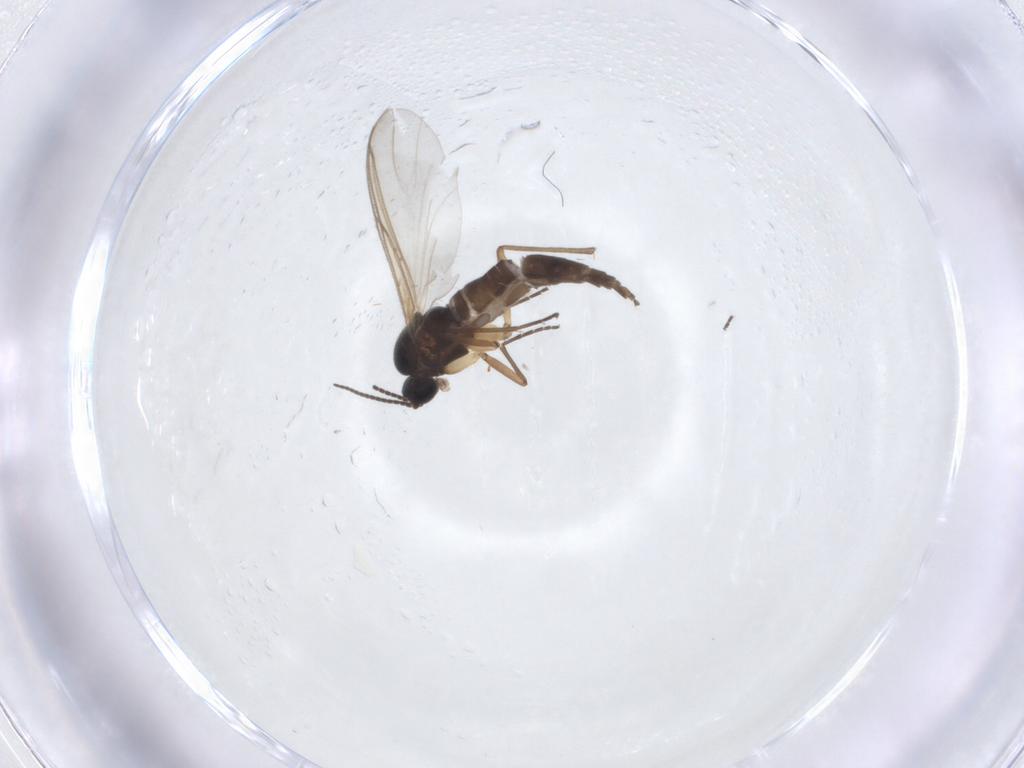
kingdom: Animalia
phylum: Arthropoda
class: Insecta
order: Diptera
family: Sciaridae
